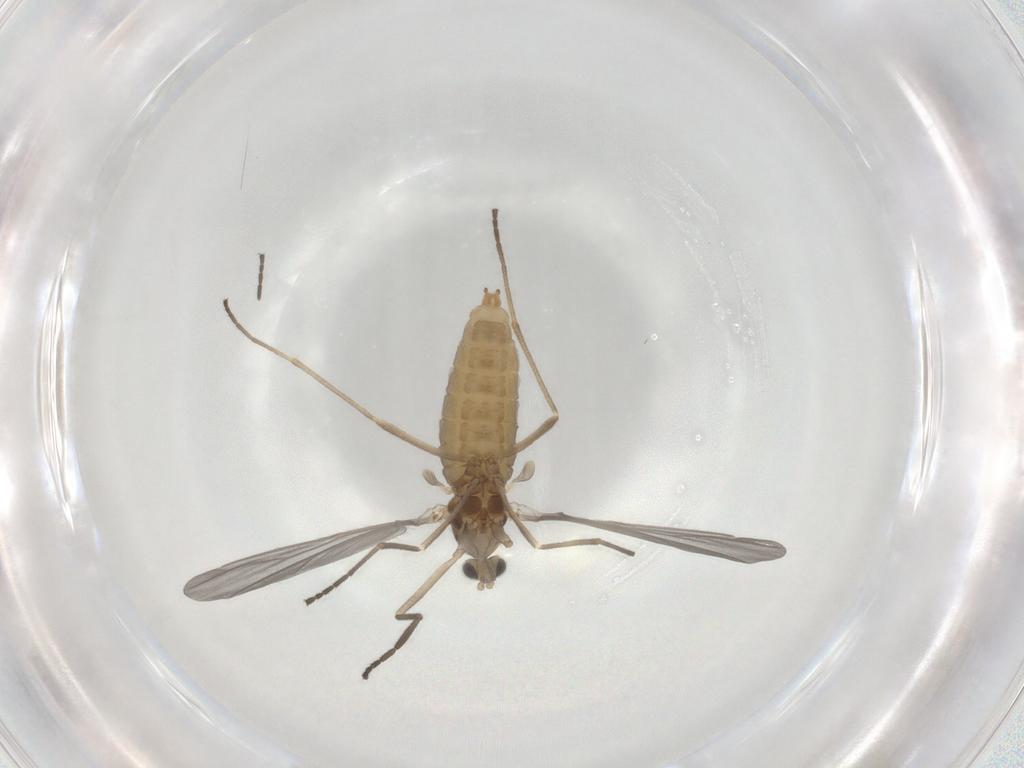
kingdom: Animalia
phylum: Arthropoda
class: Insecta
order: Diptera
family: Cecidomyiidae
